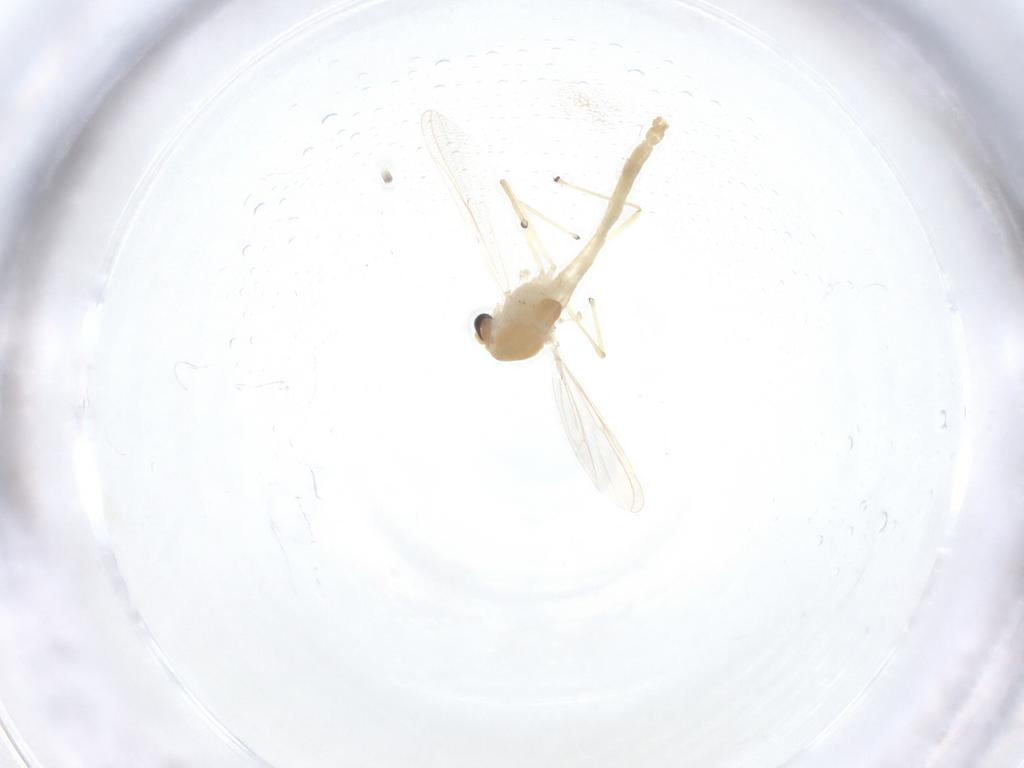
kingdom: Animalia
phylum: Arthropoda
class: Insecta
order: Diptera
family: Chironomidae
